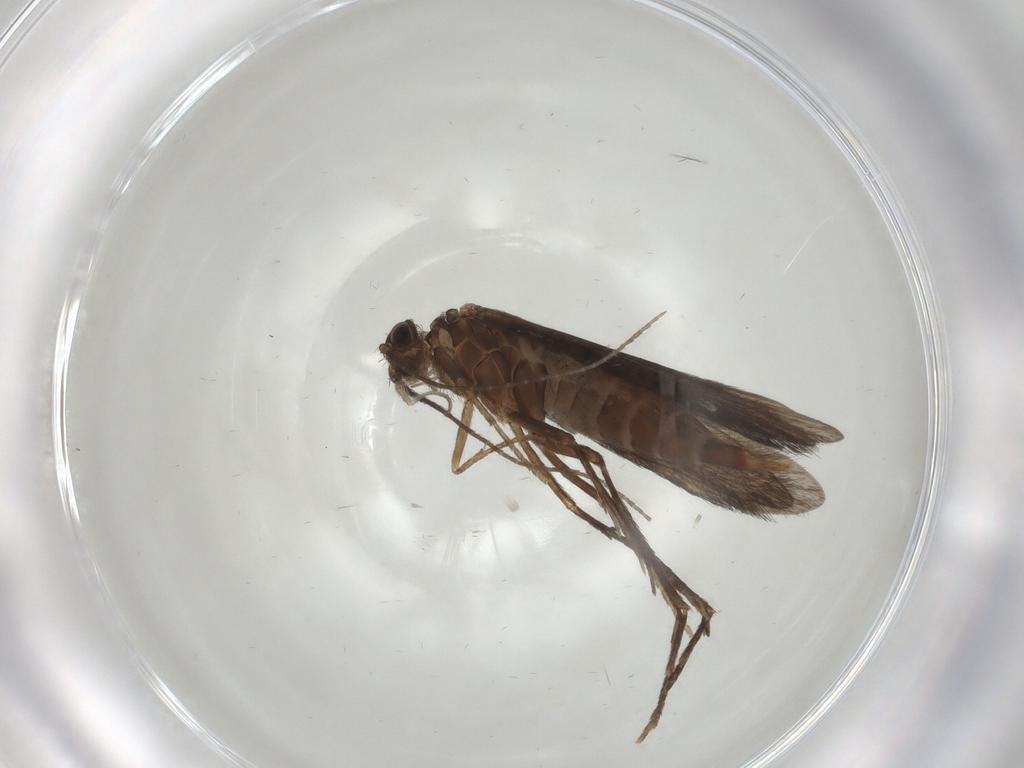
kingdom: Animalia
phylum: Arthropoda
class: Insecta
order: Trichoptera
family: Xiphocentronidae
